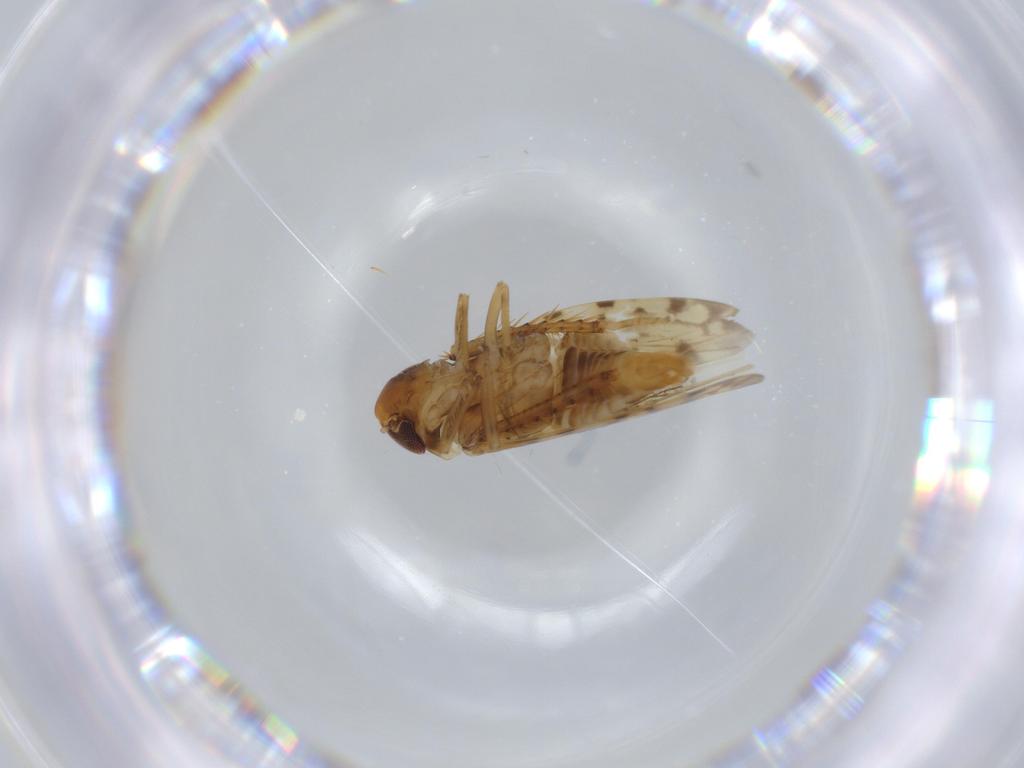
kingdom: Animalia
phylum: Arthropoda
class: Insecta
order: Hemiptera
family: Cicadellidae
